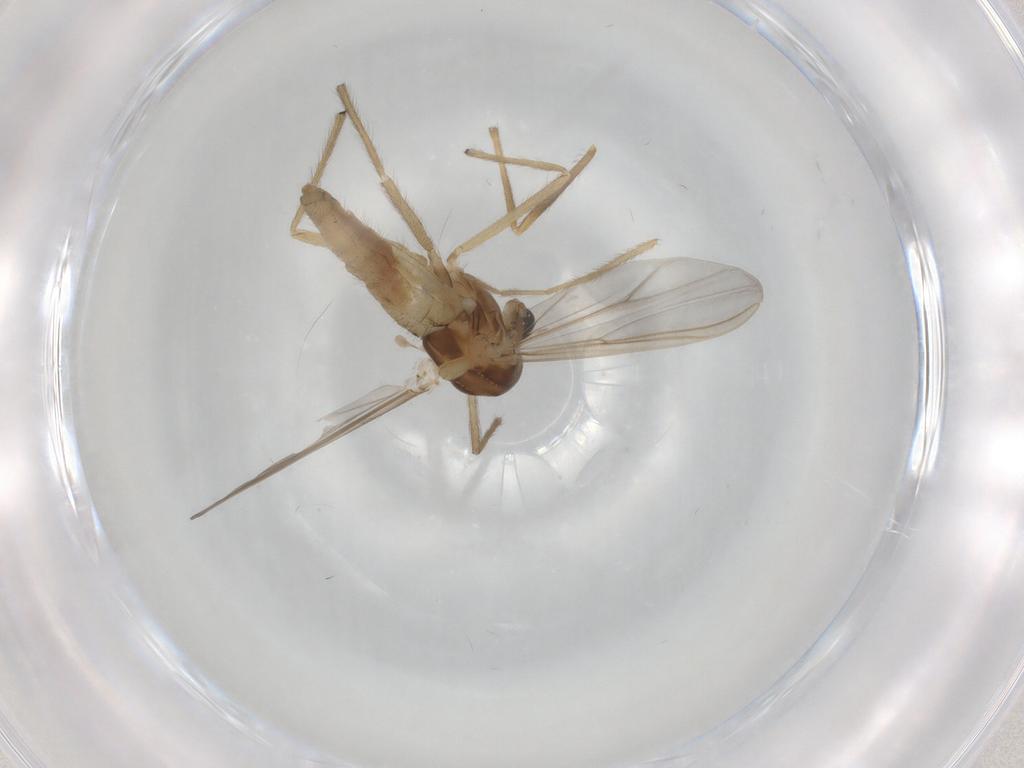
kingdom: Animalia
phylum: Arthropoda
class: Insecta
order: Diptera
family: Chironomidae
